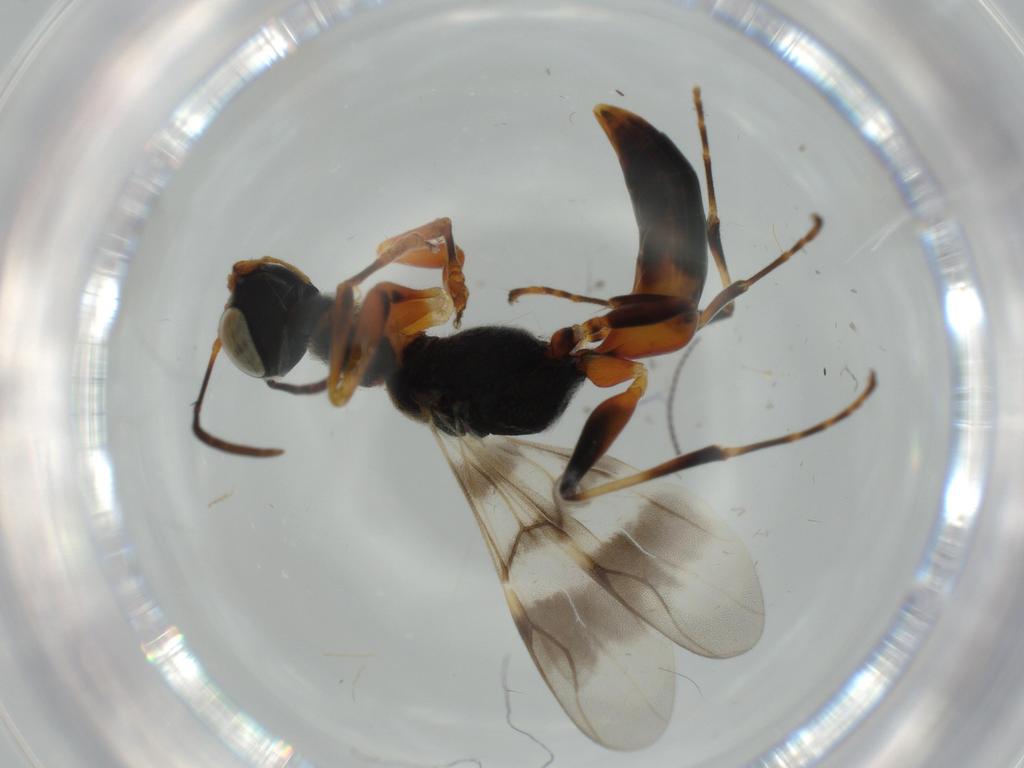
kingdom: Animalia
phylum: Arthropoda
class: Insecta
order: Hymenoptera
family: Dryinidae
